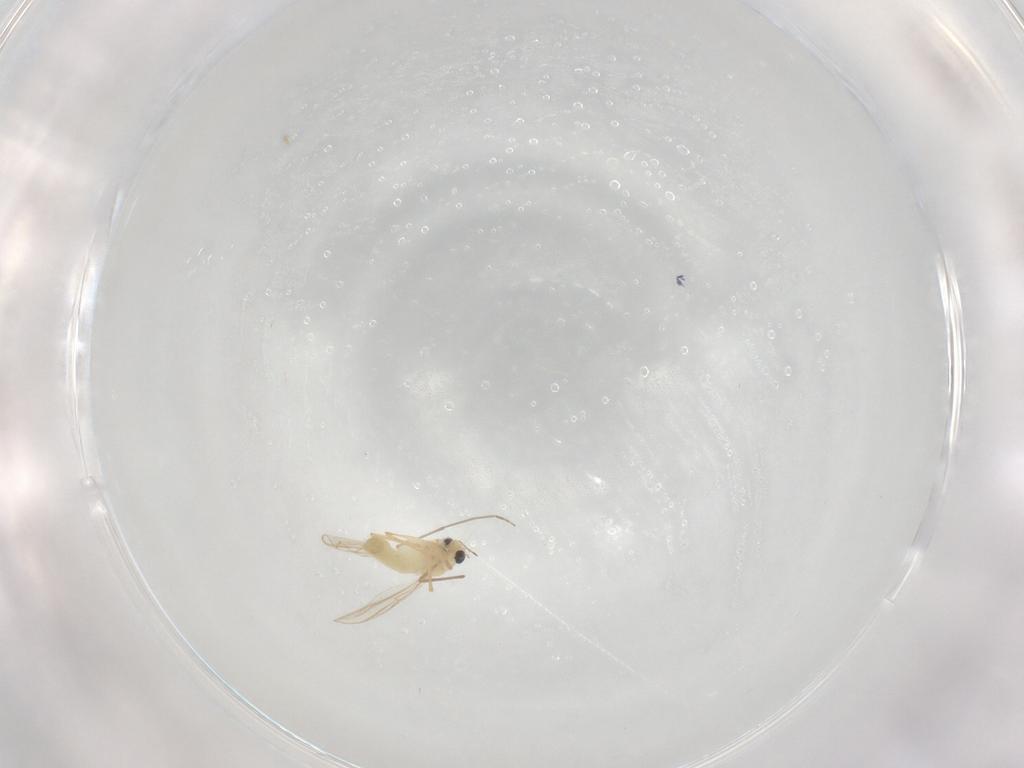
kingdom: Animalia
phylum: Arthropoda
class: Insecta
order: Diptera
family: Chironomidae
